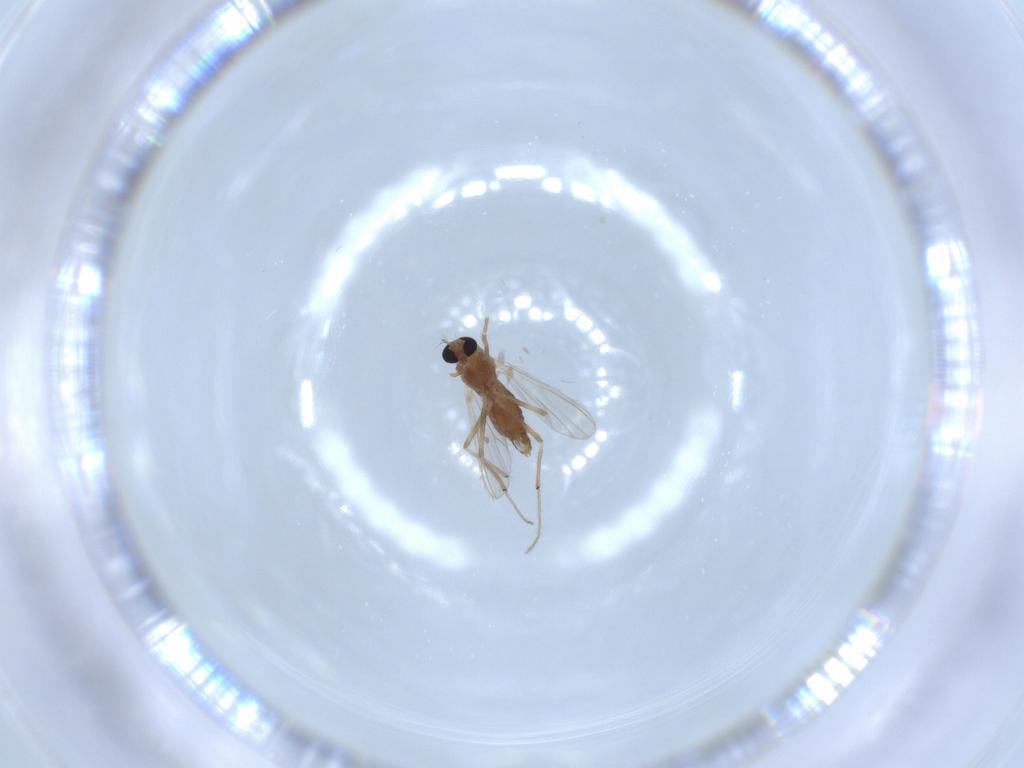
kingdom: Animalia
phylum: Arthropoda
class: Insecta
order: Diptera
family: Chironomidae
